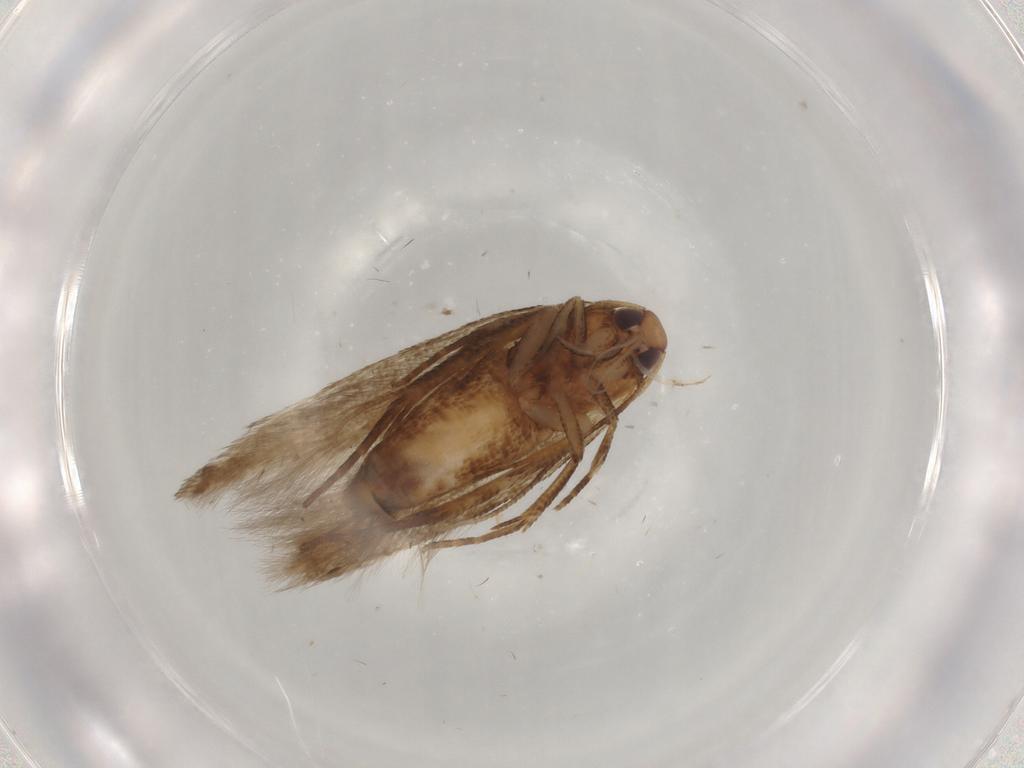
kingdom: Animalia
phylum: Arthropoda
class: Insecta
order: Lepidoptera
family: Cosmopterigidae
